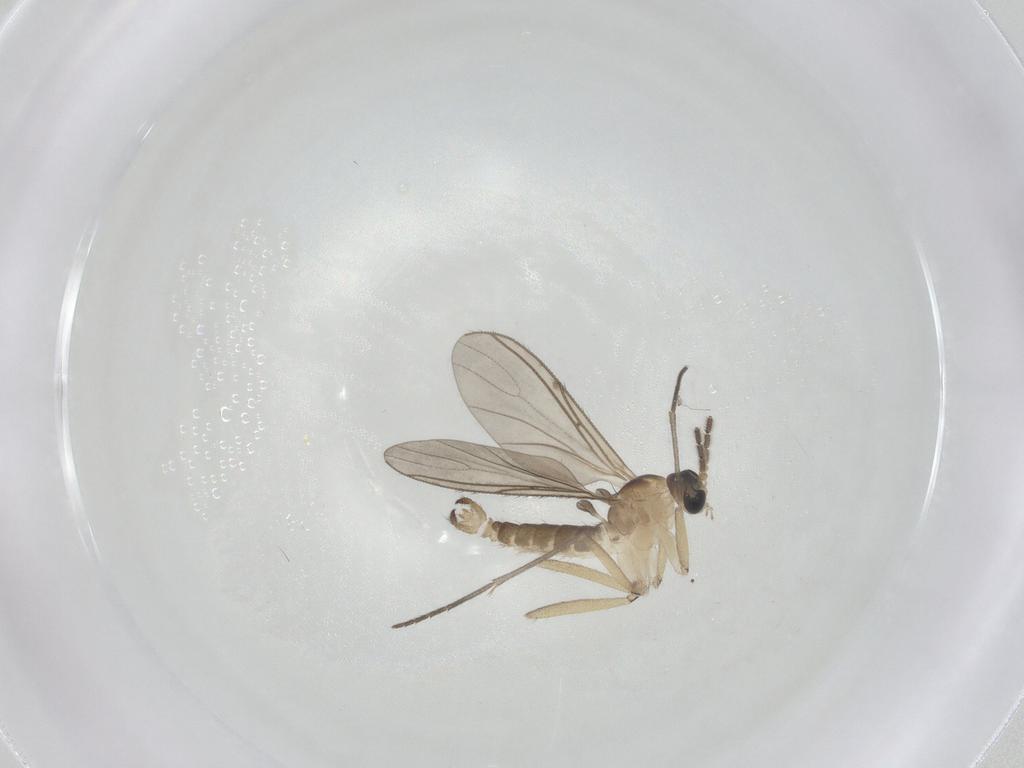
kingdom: Animalia
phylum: Arthropoda
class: Insecta
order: Diptera
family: Sciaridae
